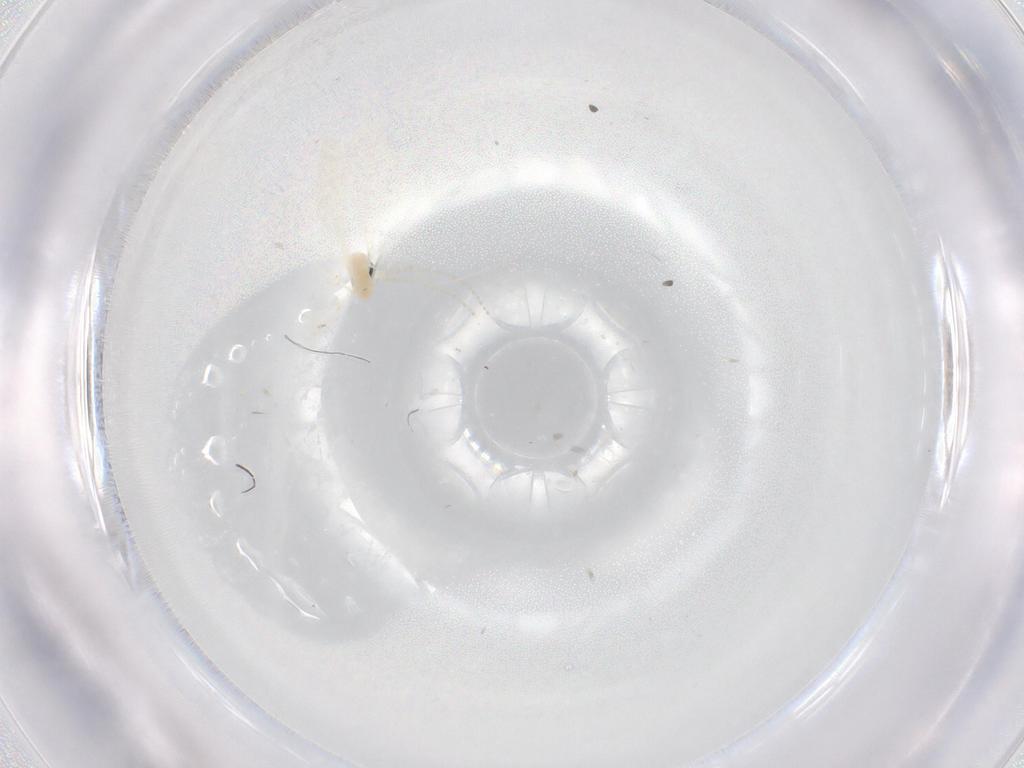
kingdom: Animalia
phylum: Arthropoda
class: Insecta
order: Diptera
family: Cecidomyiidae
